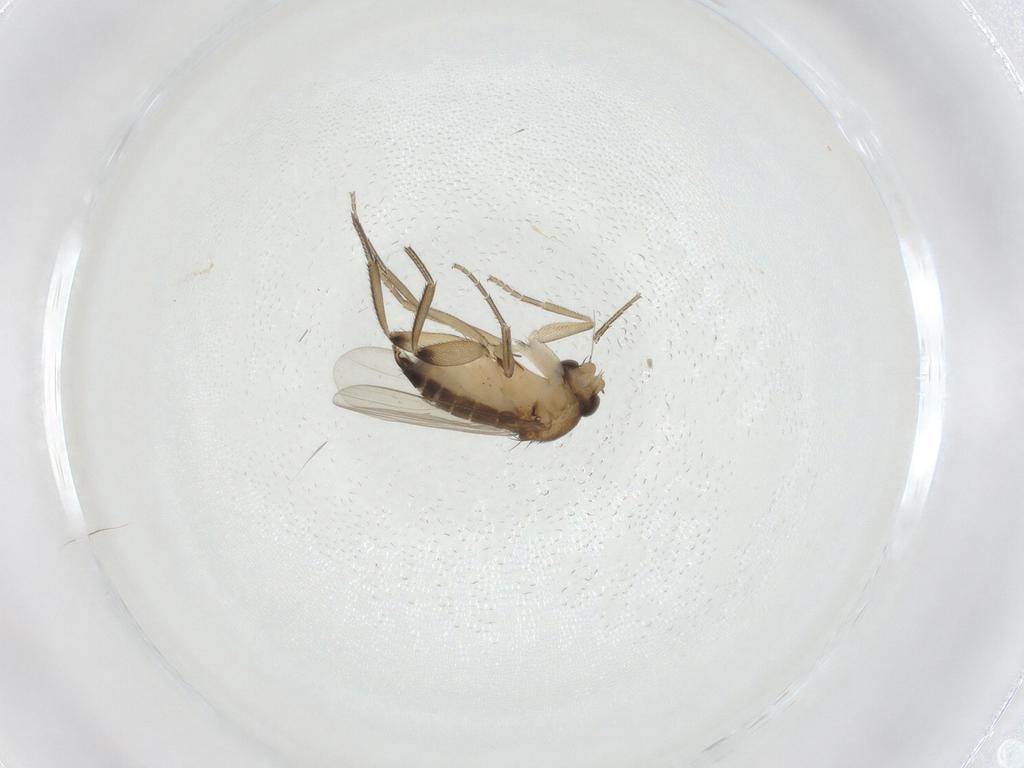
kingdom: Animalia
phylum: Arthropoda
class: Insecta
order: Diptera
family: Phoridae
